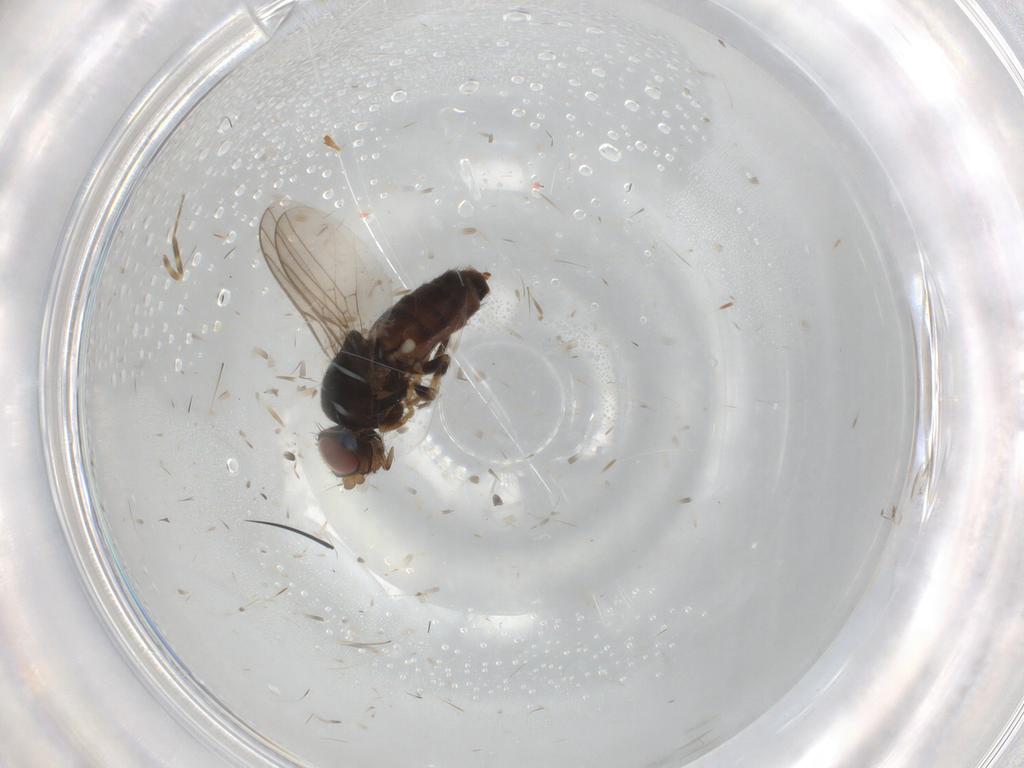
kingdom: Animalia
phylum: Arthropoda
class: Insecta
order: Diptera
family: Chloropidae
